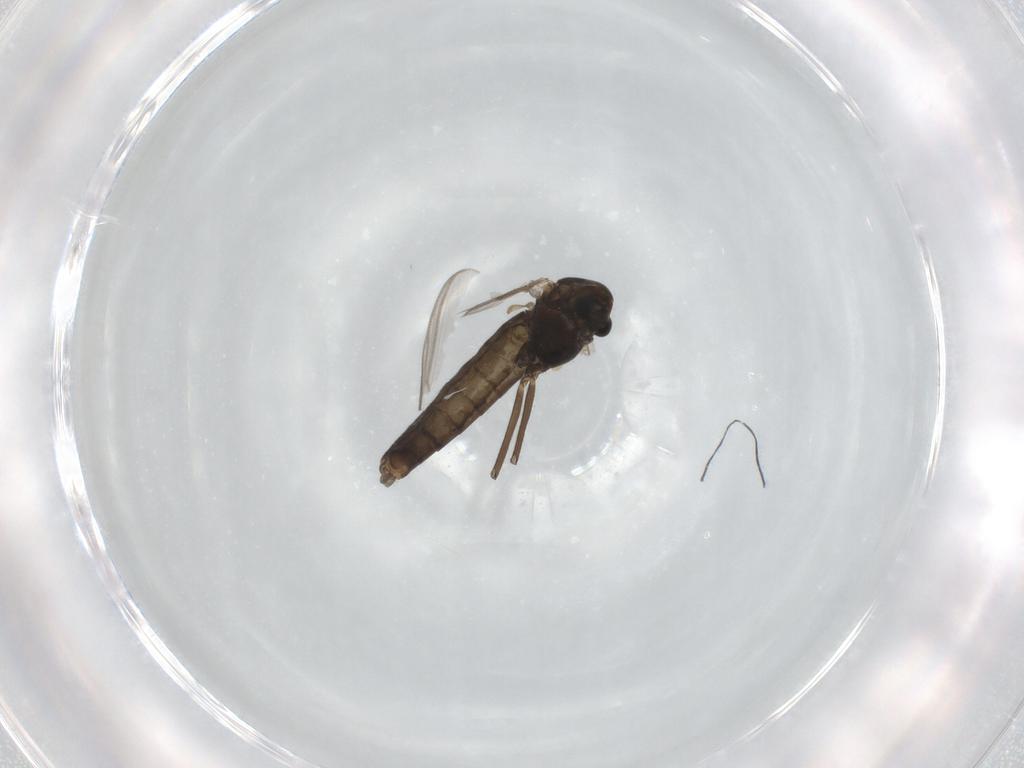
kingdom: Animalia
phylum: Arthropoda
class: Insecta
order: Diptera
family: Chironomidae
